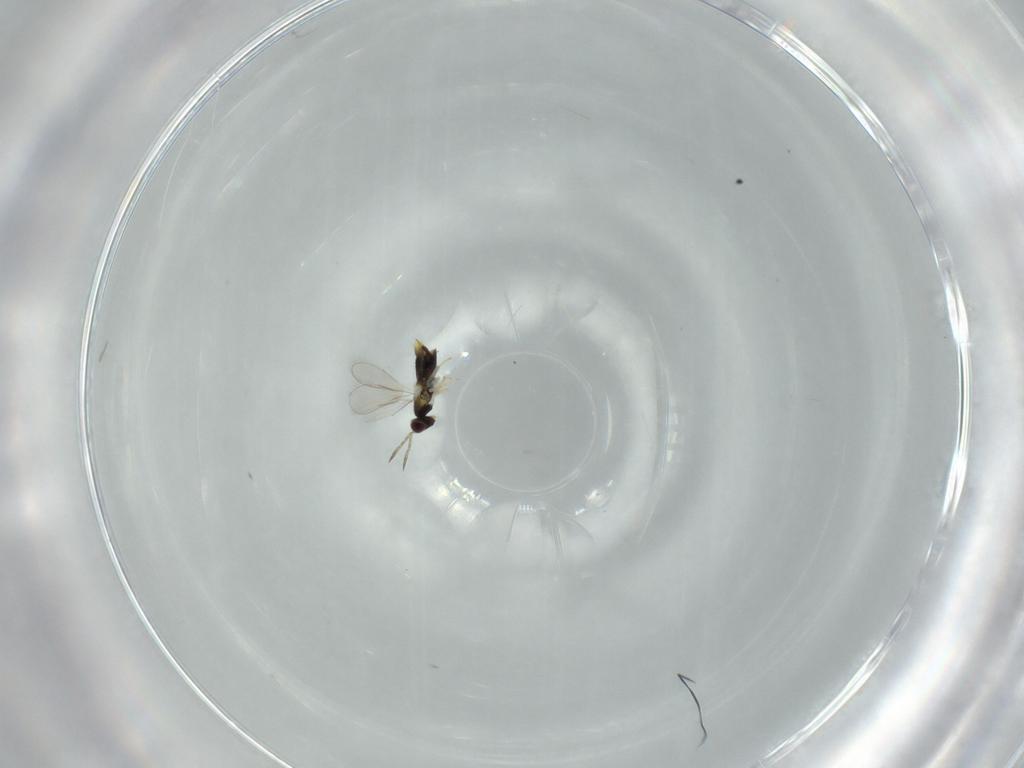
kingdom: Animalia
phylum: Arthropoda
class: Insecta
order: Hymenoptera
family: Aphelinidae
